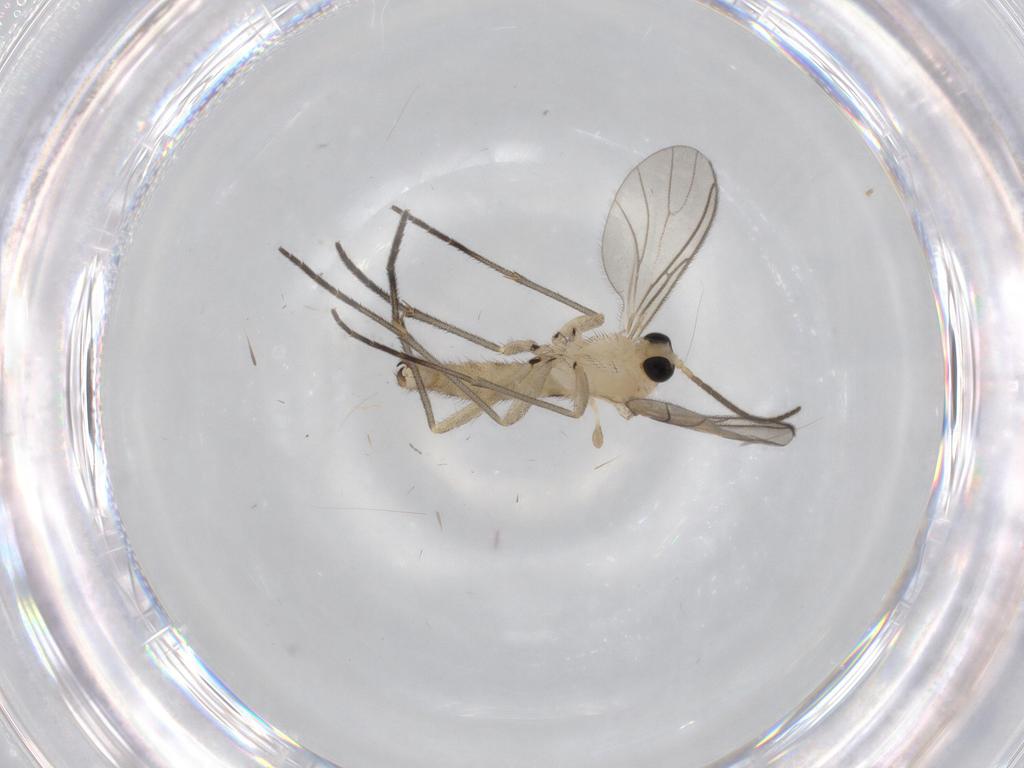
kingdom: Animalia
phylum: Arthropoda
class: Insecta
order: Diptera
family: Sciaridae
